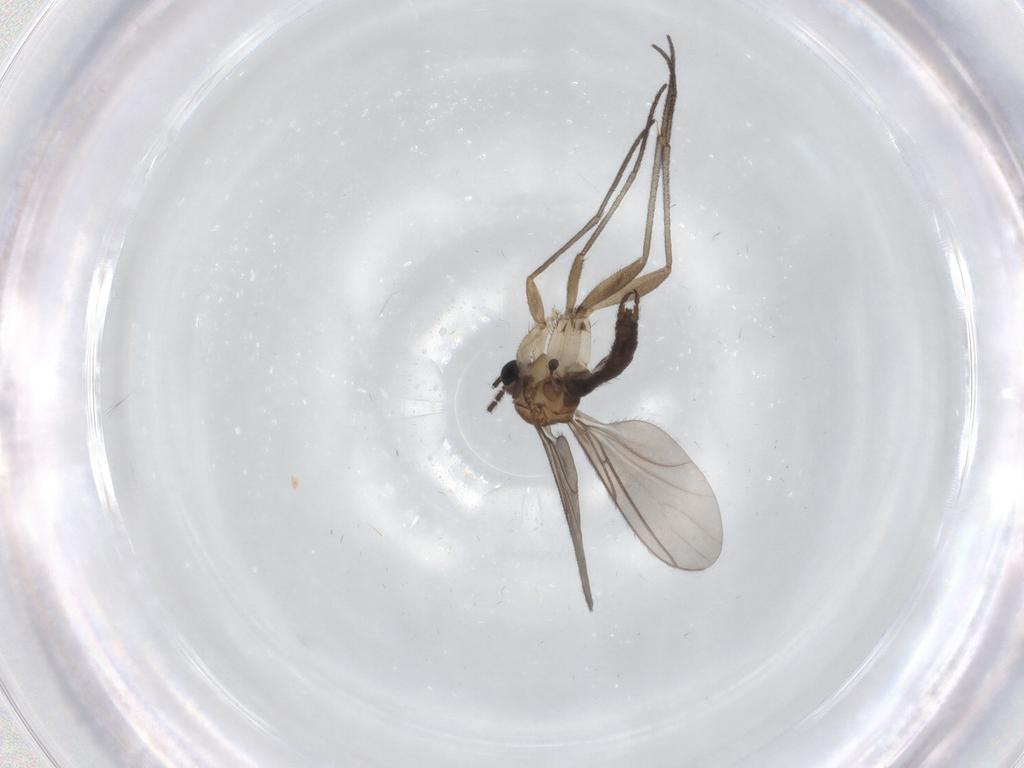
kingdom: Animalia
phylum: Arthropoda
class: Insecta
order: Diptera
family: Sciaridae
